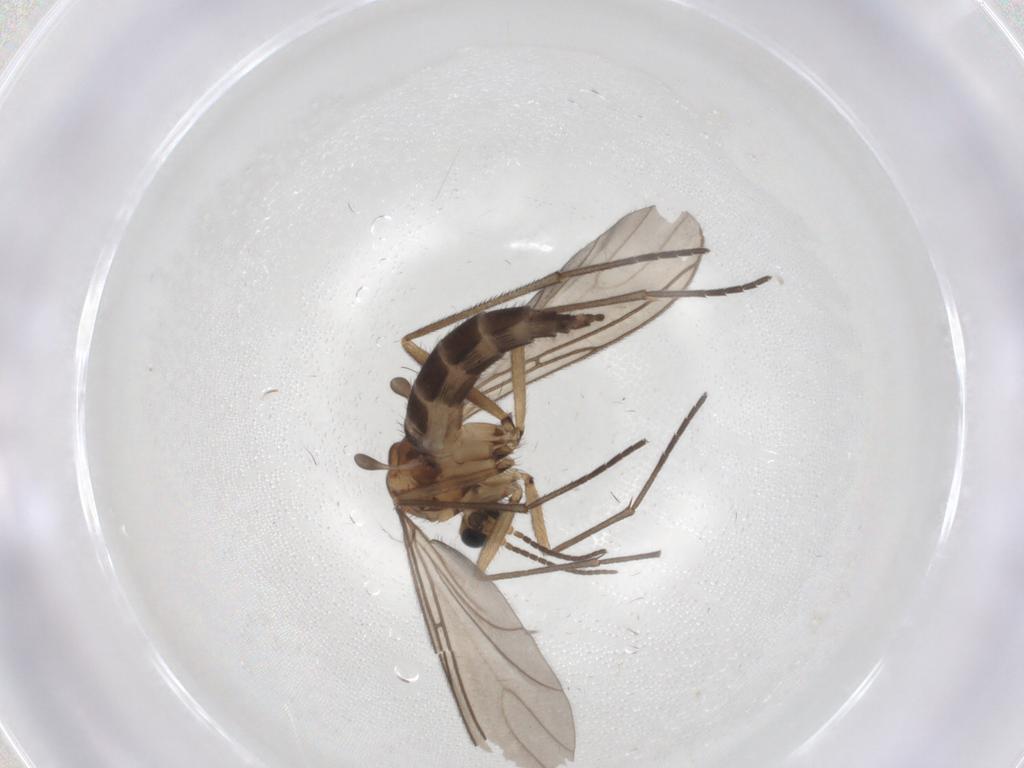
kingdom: Animalia
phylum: Arthropoda
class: Insecta
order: Diptera
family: Sciaridae
